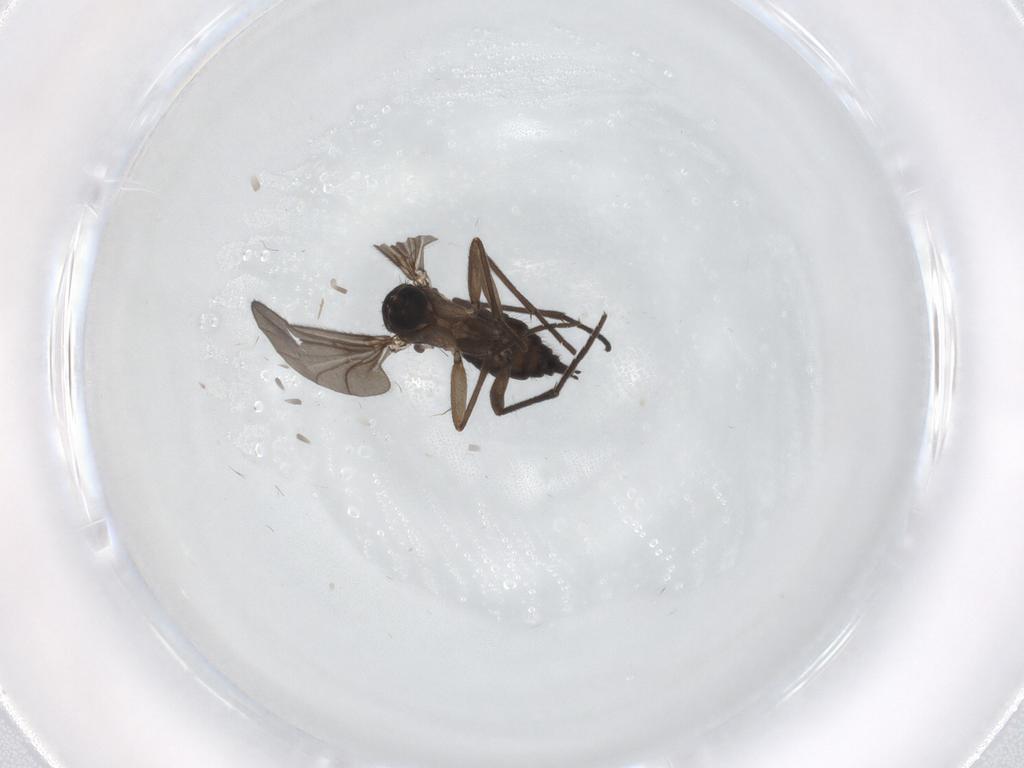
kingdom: Animalia
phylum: Arthropoda
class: Insecta
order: Diptera
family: Sciaridae
